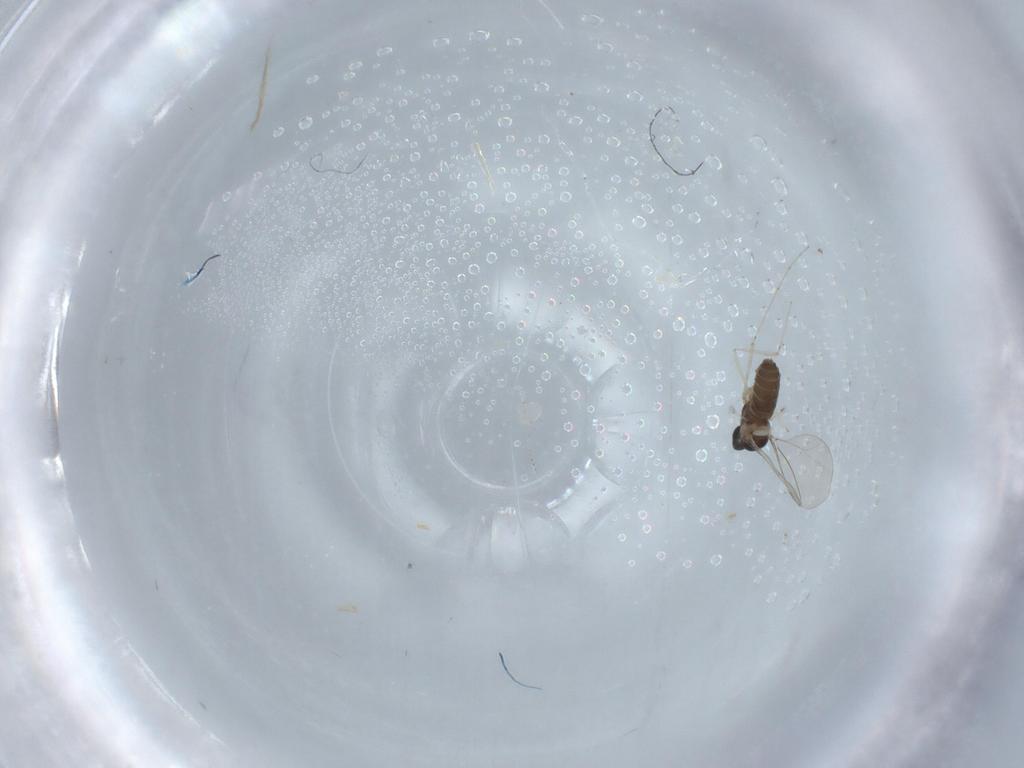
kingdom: Animalia
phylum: Arthropoda
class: Insecta
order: Diptera
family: Cecidomyiidae
